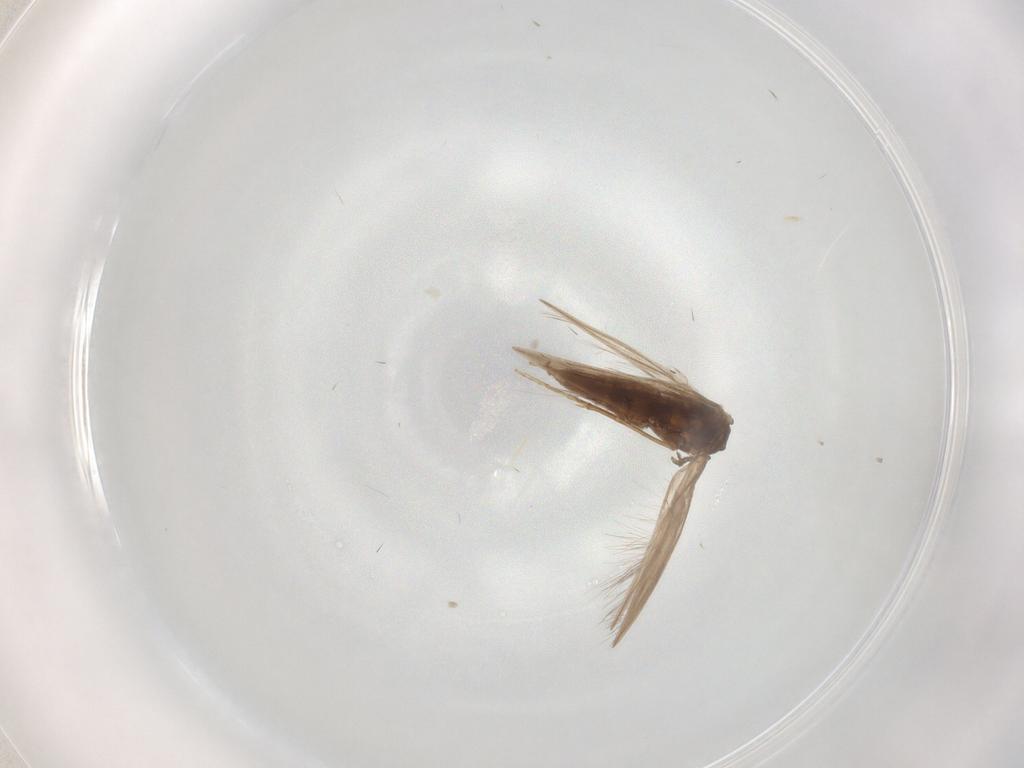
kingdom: Animalia
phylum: Arthropoda
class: Insecta
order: Trichoptera
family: Hydroptilidae
